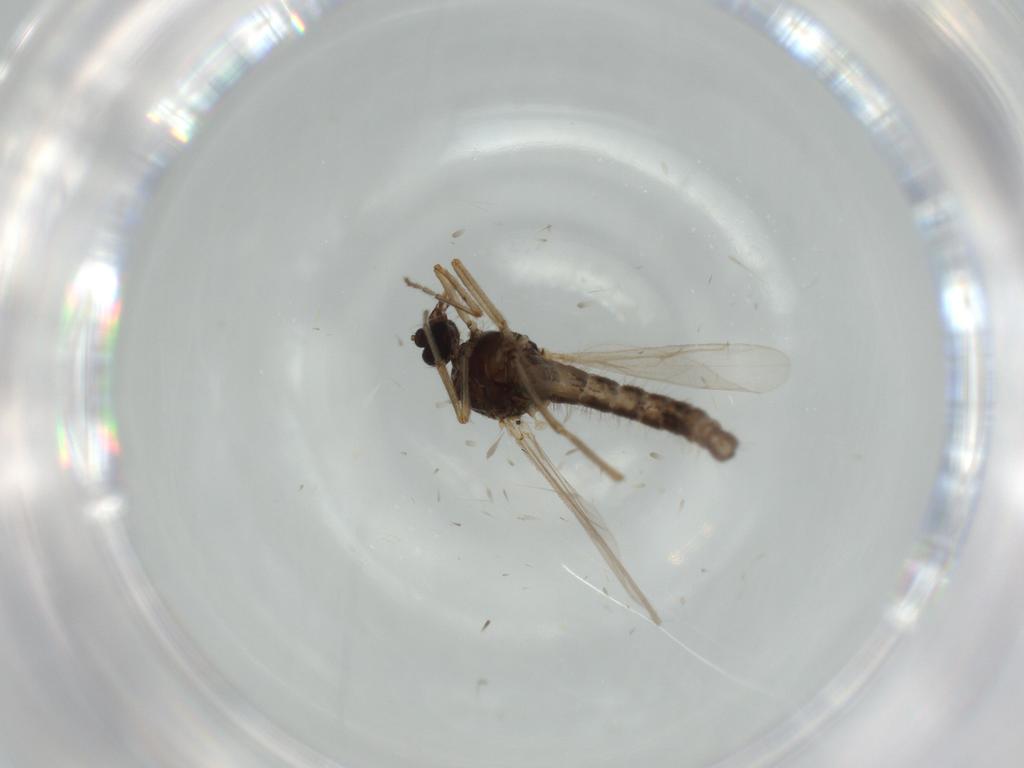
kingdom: Animalia
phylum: Arthropoda
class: Insecta
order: Diptera
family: Ceratopogonidae
